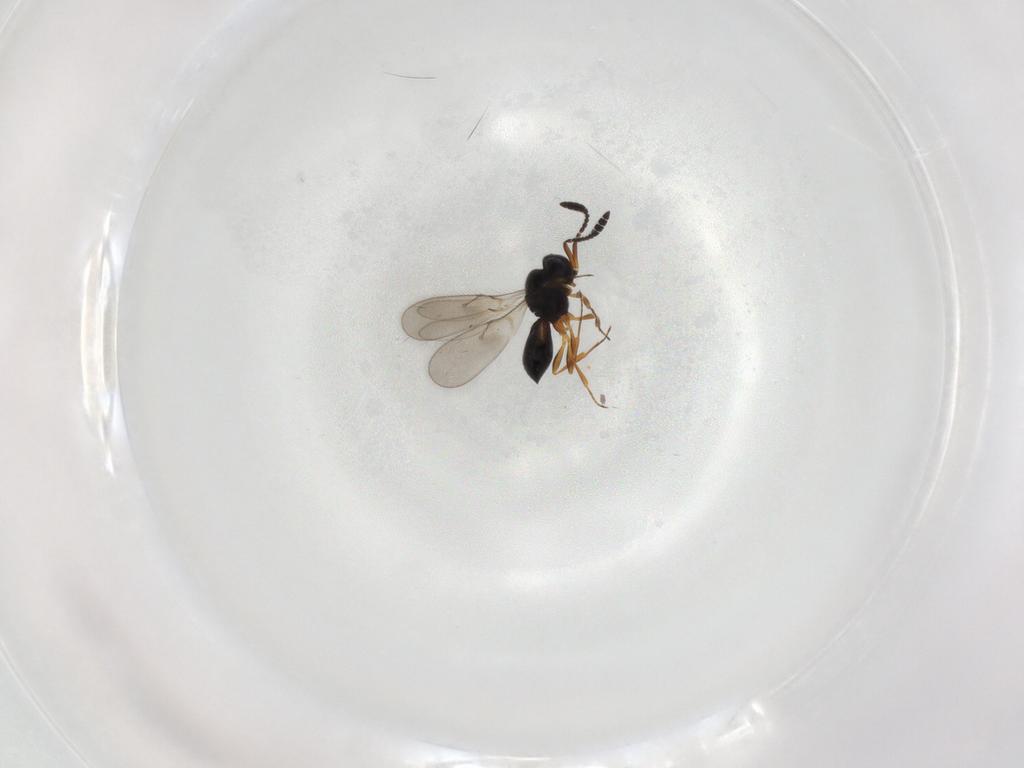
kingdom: Animalia
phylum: Arthropoda
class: Insecta
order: Hymenoptera
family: Scelionidae
